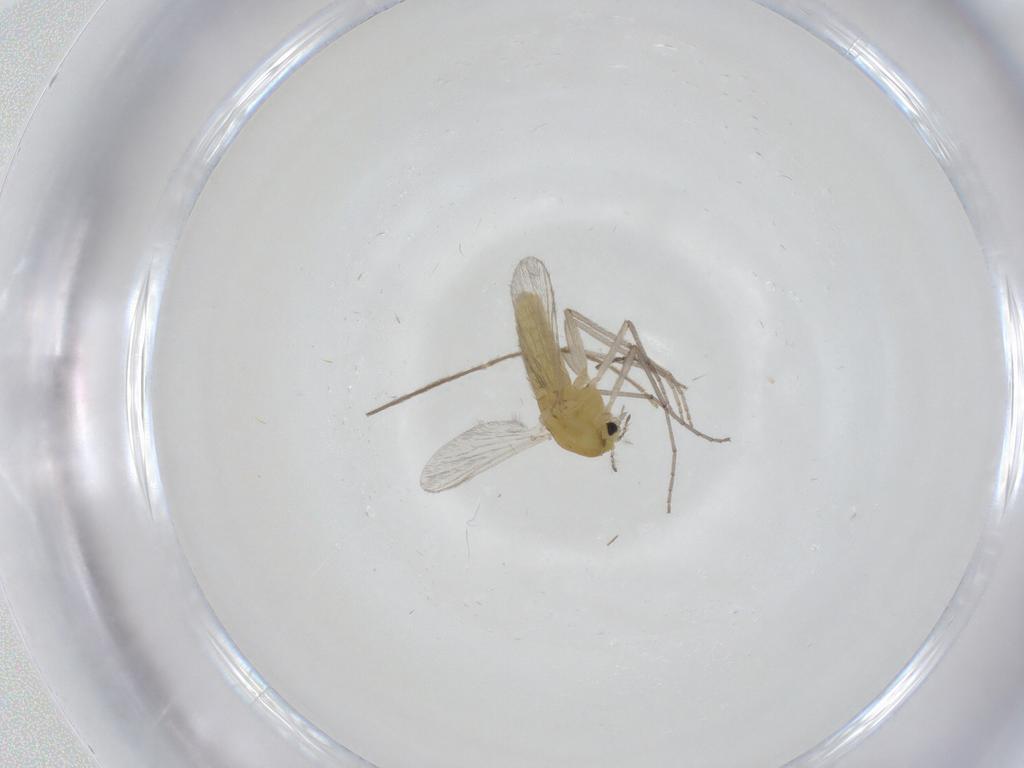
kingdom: Animalia
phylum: Arthropoda
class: Insecta
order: Diptera
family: Chironomidae
